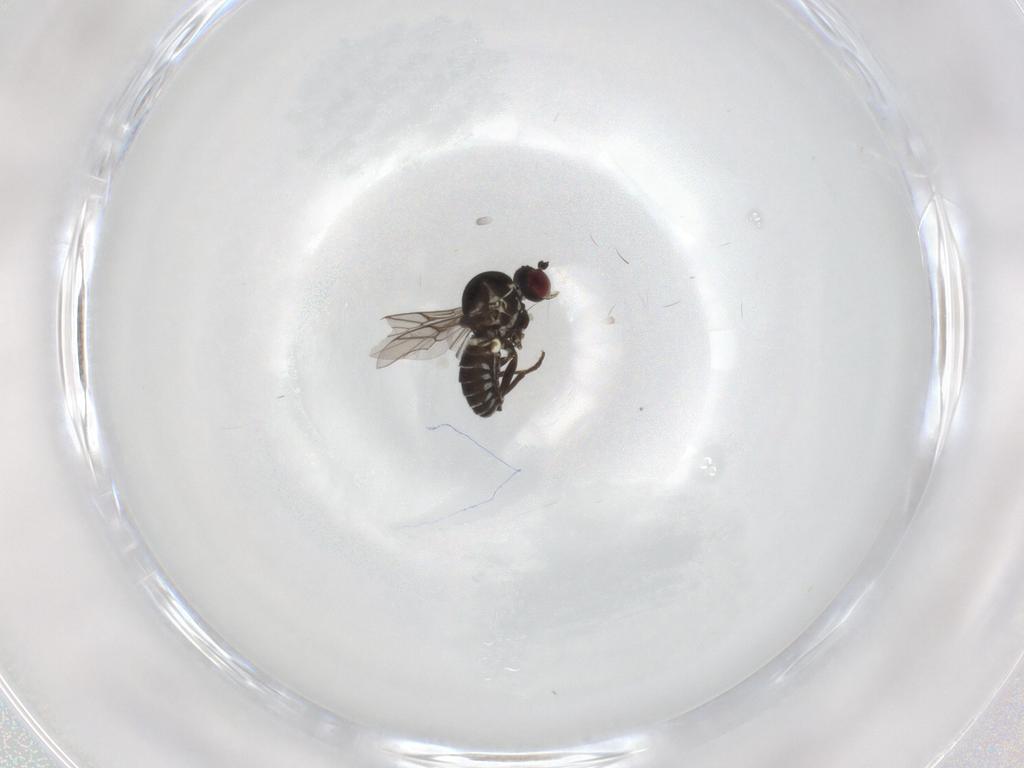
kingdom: Animalia
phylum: Arthropoda
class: Insecta
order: Diptera
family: Mythicomyiidae
